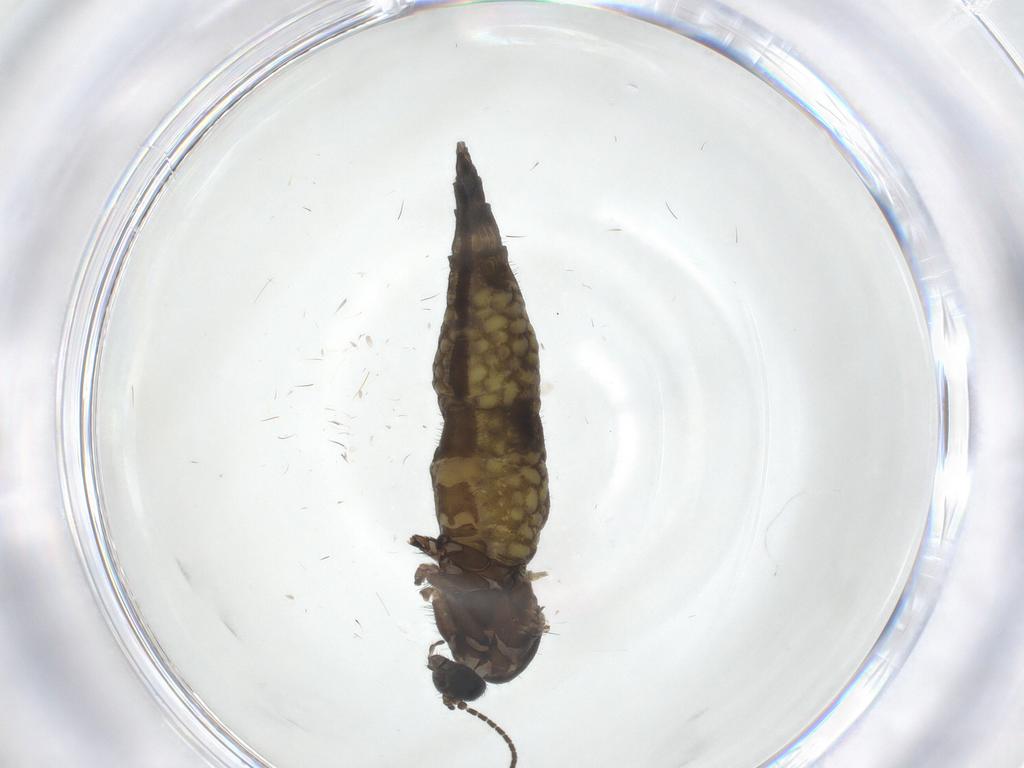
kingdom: Animalia
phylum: Arthropoda
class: Insecta
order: Diptera
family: Sciaridae
